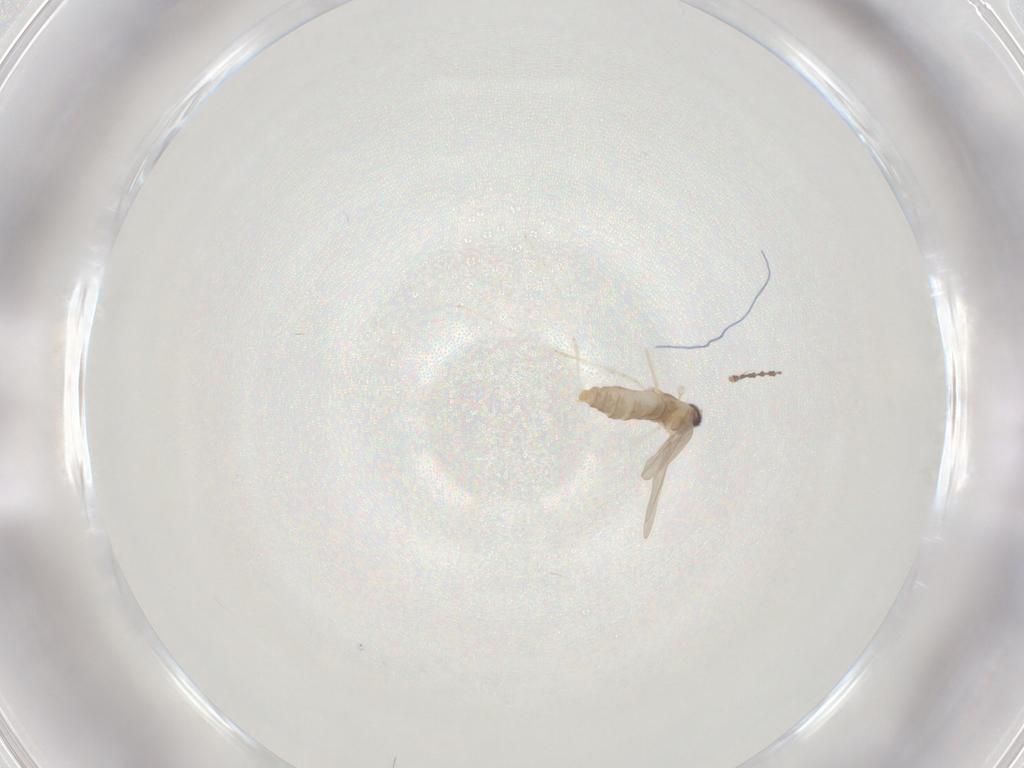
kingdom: Animalia
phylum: Arthropoda
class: Insecta
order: Diptera
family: Cecidomyiidae
